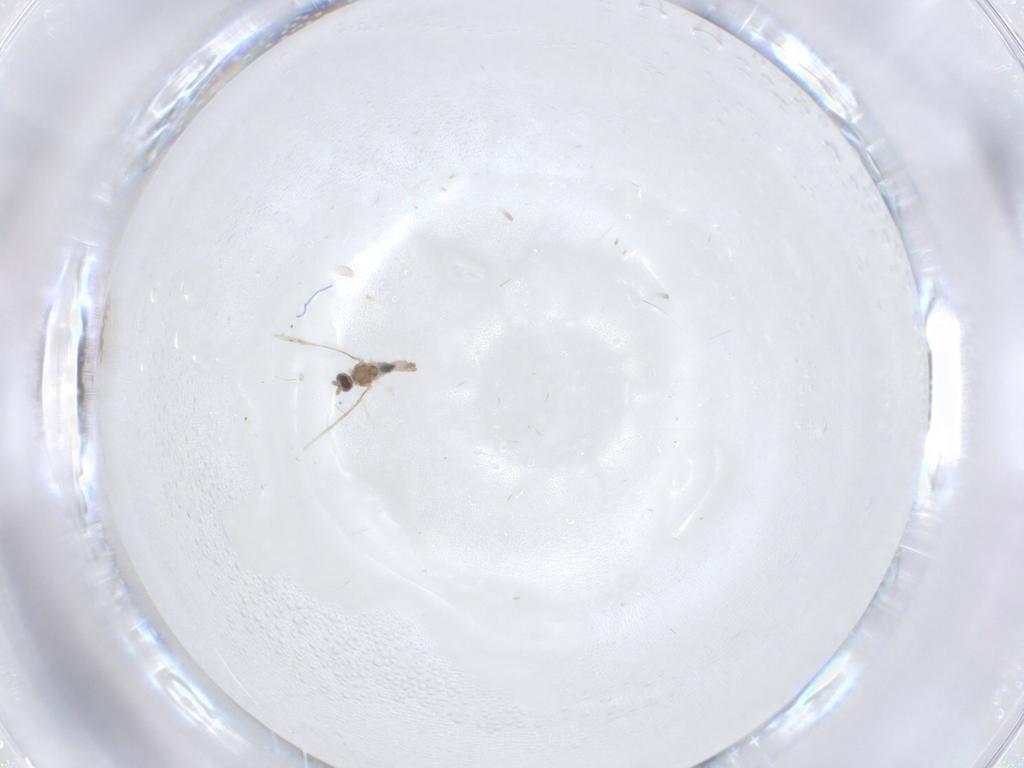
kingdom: Animalia
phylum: Arthropoda
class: Insecta
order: Diptera
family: Cecidomyiidae
